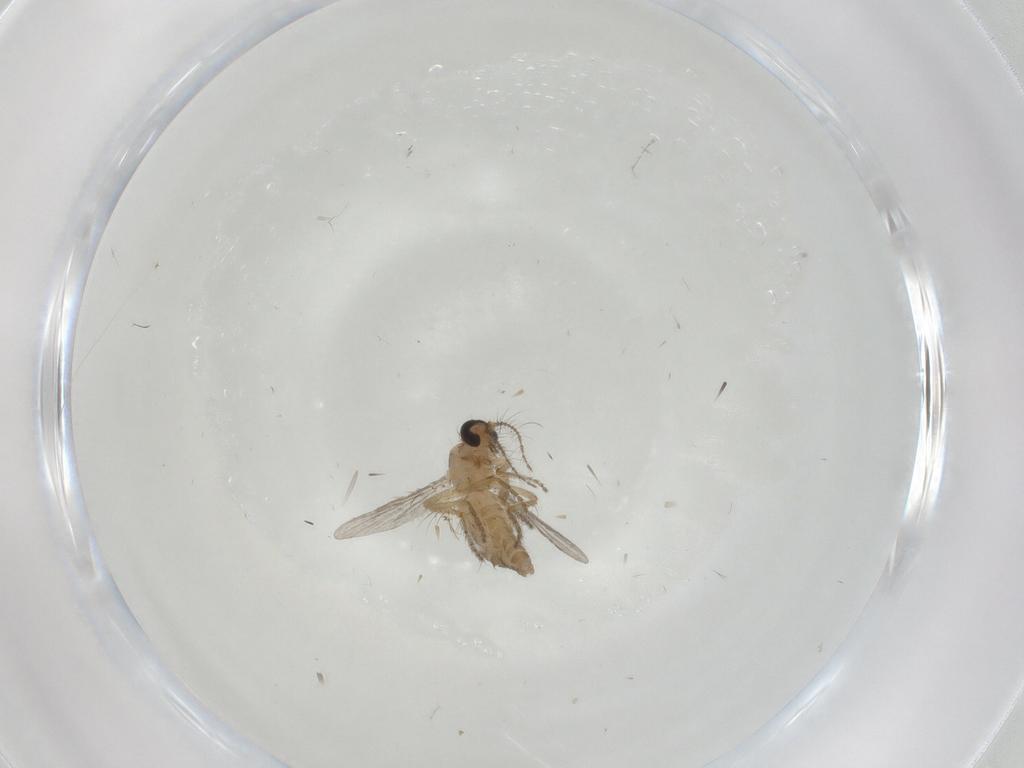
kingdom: Animalia
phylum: Arthropoda
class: Insecta
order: Diptera
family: Ceratopogonidae
